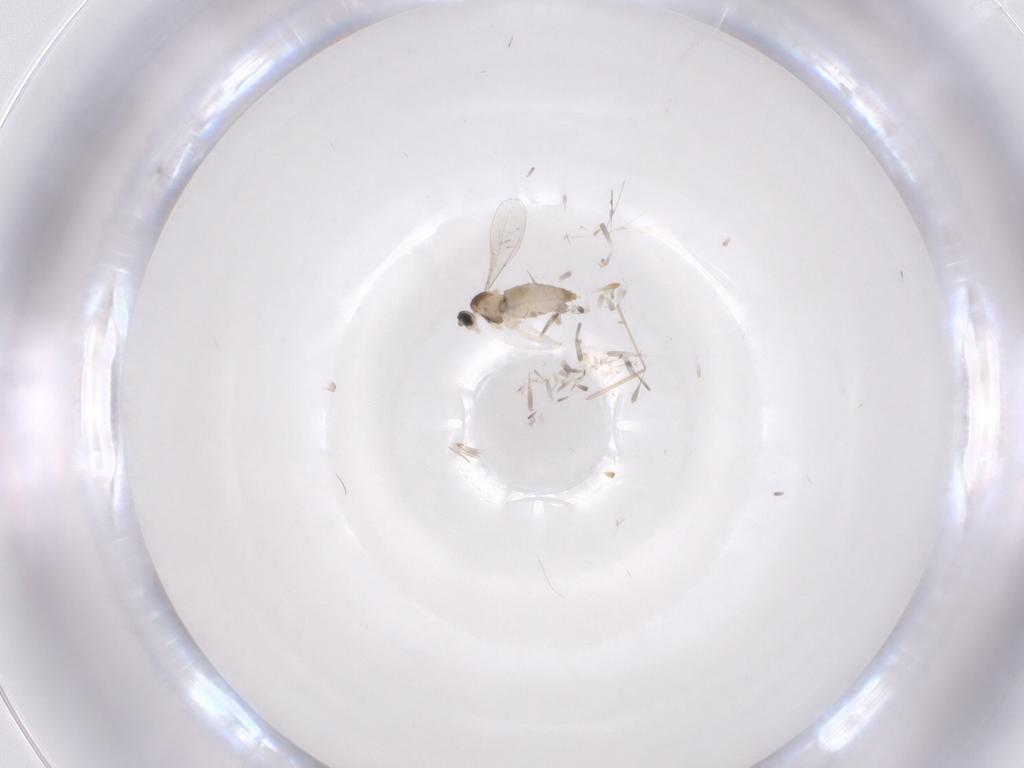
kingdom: Animalia
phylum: Arthropoda
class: Insecta
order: Diptera
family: Cecidomyiidae
